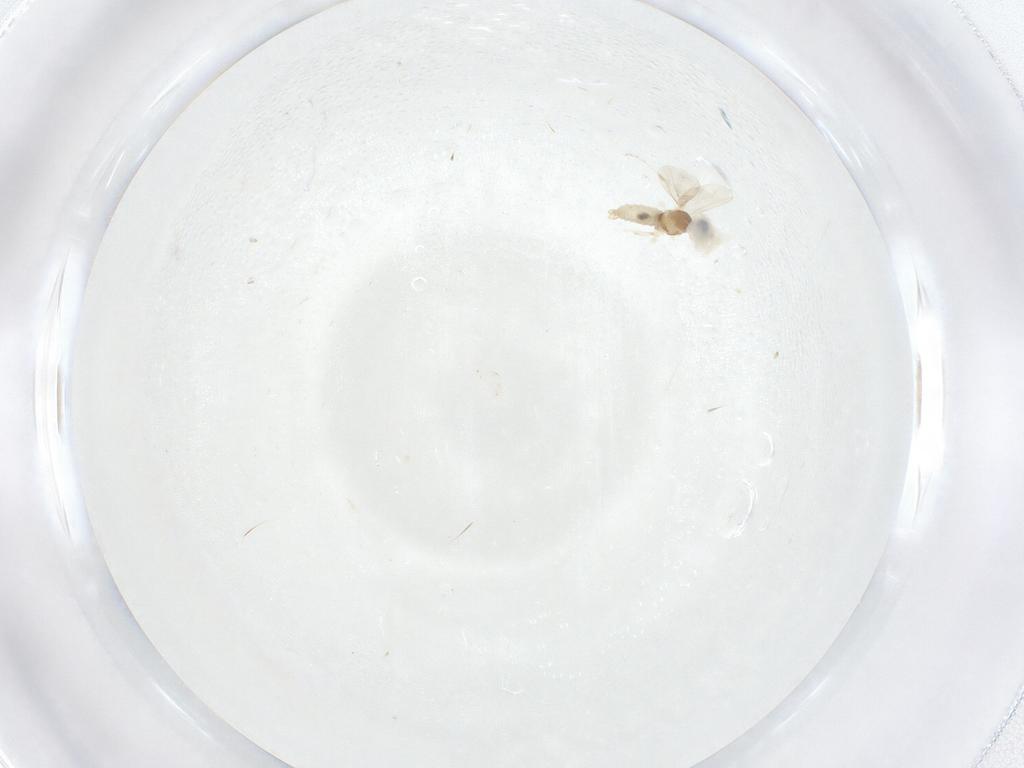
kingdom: Animalia
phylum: Arthropoda
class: Insecta
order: Diptera
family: Cecidomyiidae
